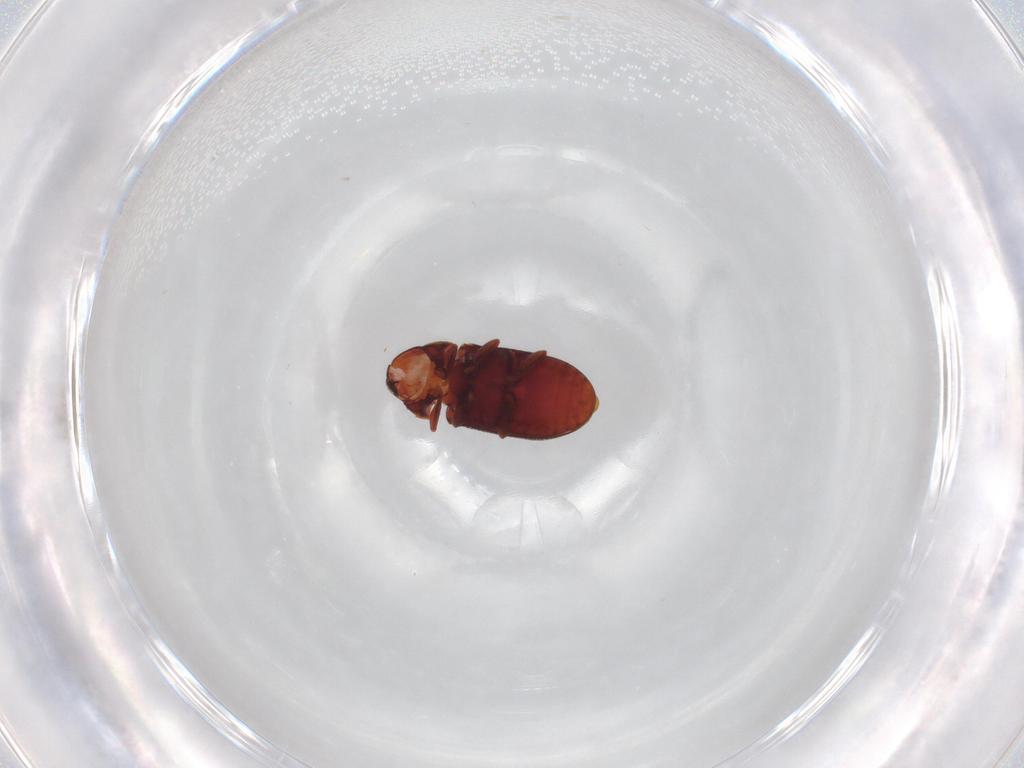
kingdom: Animalia
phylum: Arthropoda
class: Insecta
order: Coleoptera
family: Ptinidae
